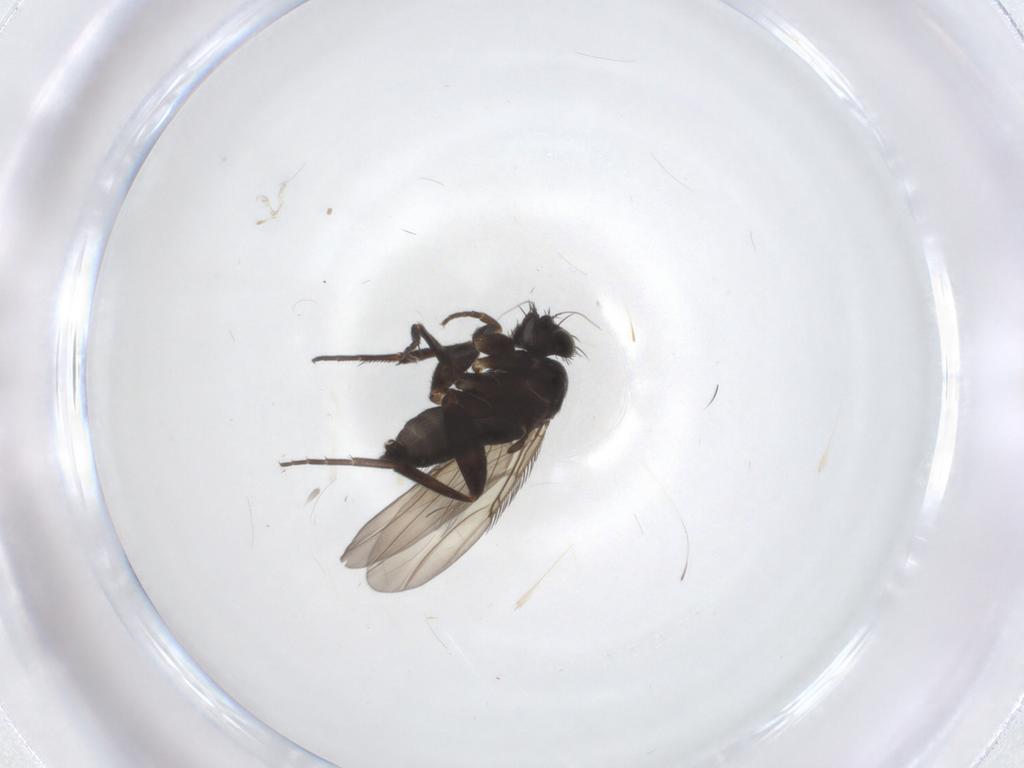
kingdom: Animalia
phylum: Arthropoda
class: Insecta
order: Diptera
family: Phoridae
